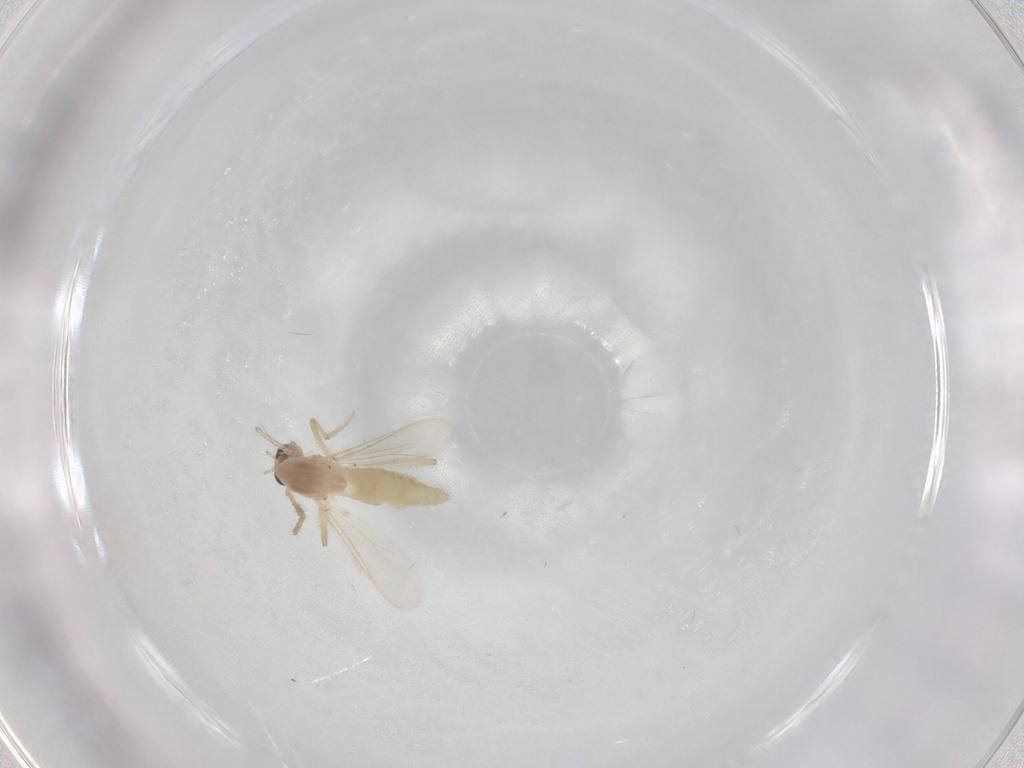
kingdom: Animalia
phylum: Arthropoda
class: Insecta
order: Diptera
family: Chironomidae
